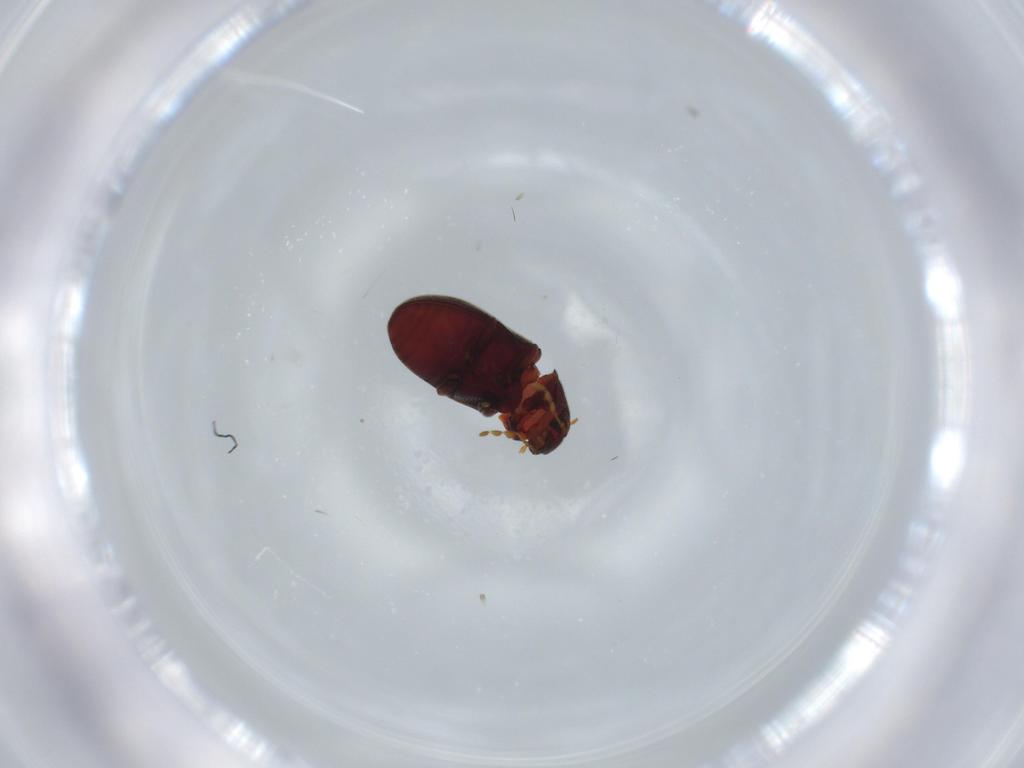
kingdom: Animalia
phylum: Arthropoda
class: Insecta
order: Coleoptera
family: Ptinidae
